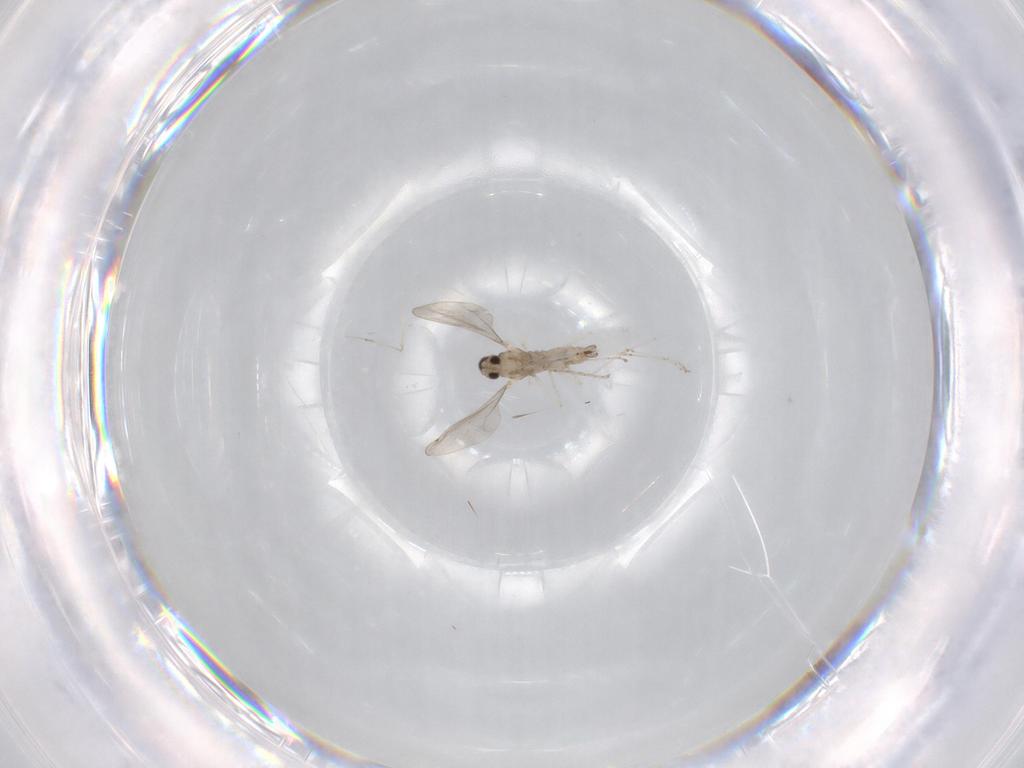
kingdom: Animalia
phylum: Arthropoda
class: Insecta
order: Diptera
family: Cecidomyiidae
